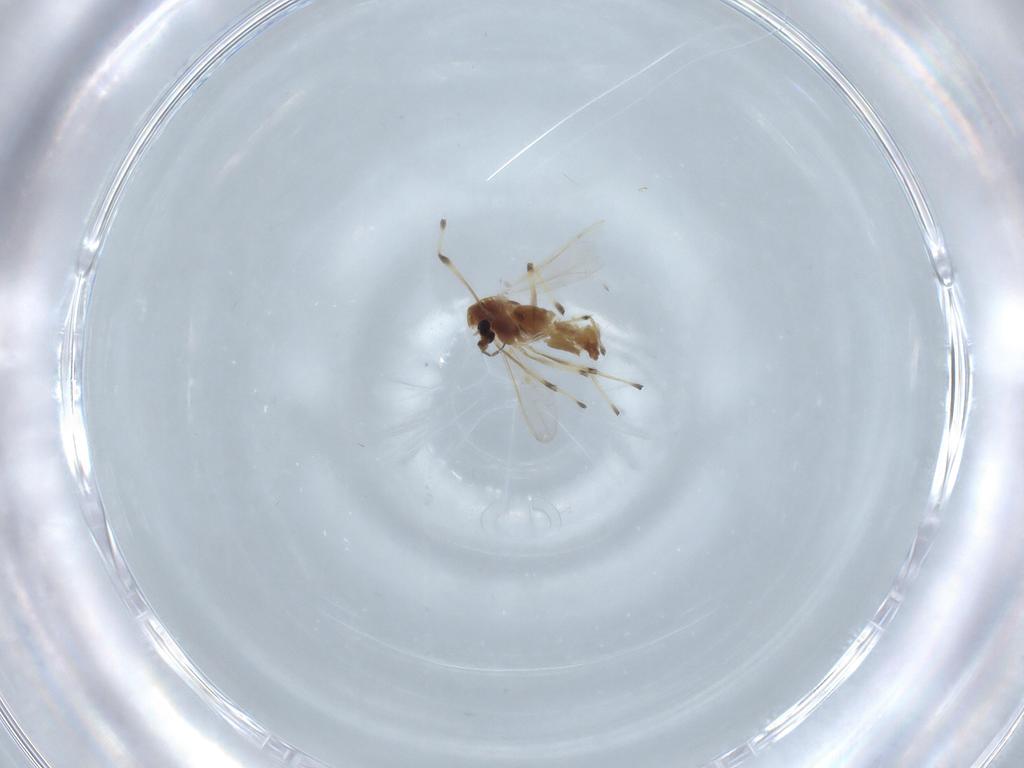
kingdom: Animalia
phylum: Arthropoda
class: Insecta
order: Diptera
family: Chironomidae
